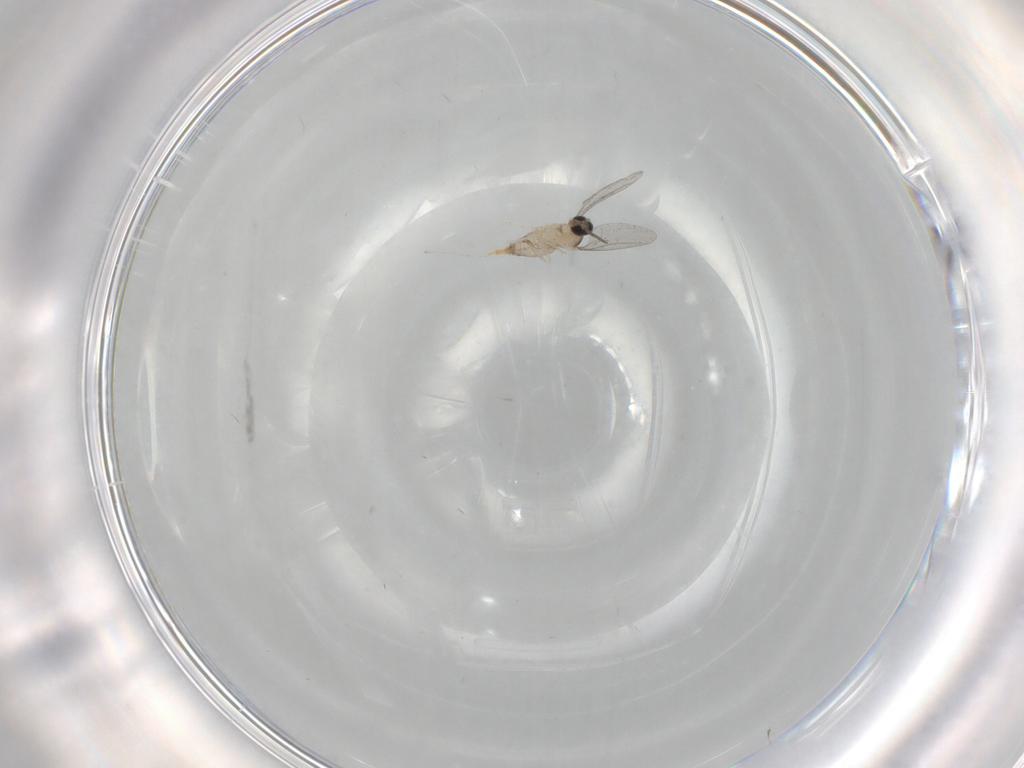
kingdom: Animalia
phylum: Arthropoda
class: Insecta
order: Diptera
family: Cecidomyiidae
